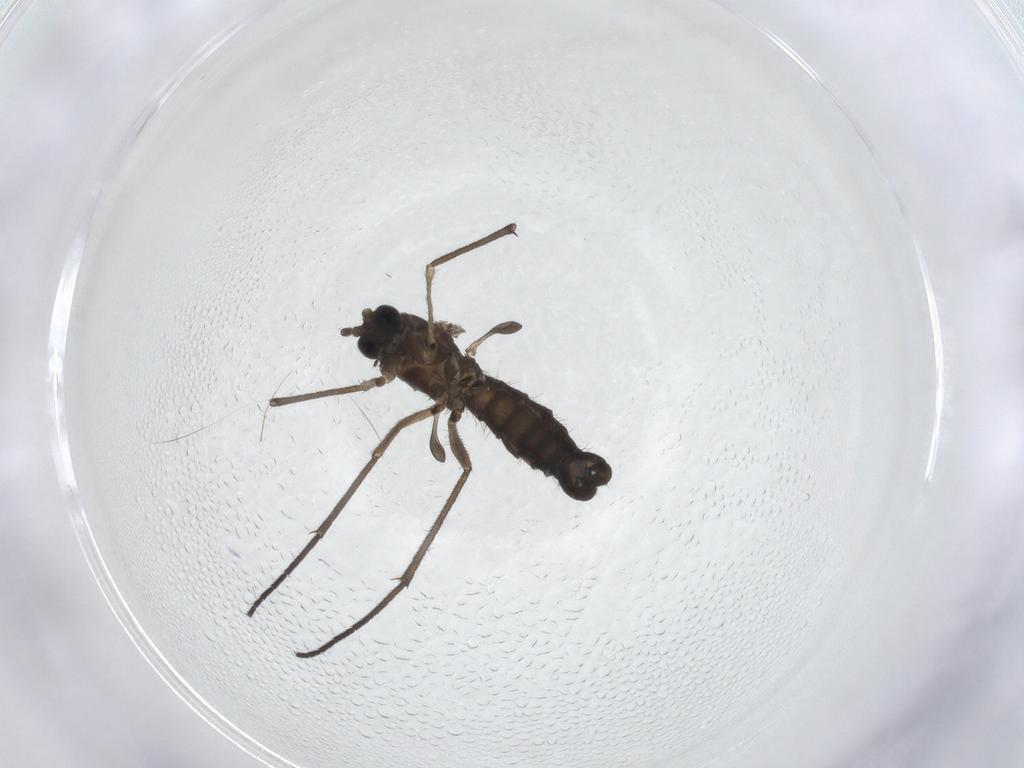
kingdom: Animalia
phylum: Arthropoda
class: Insecta
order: Diptera
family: Sciaridae
